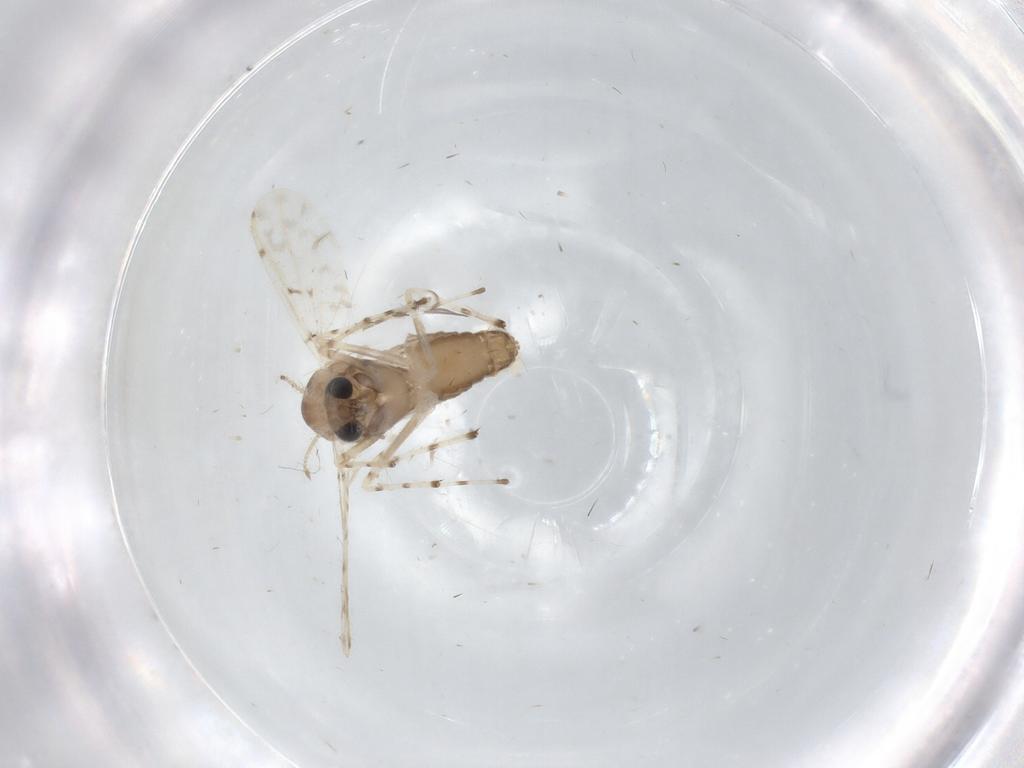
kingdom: Animalia
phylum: Arthropoda
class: Insecta
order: Diptera
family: Ceratopogonidae
